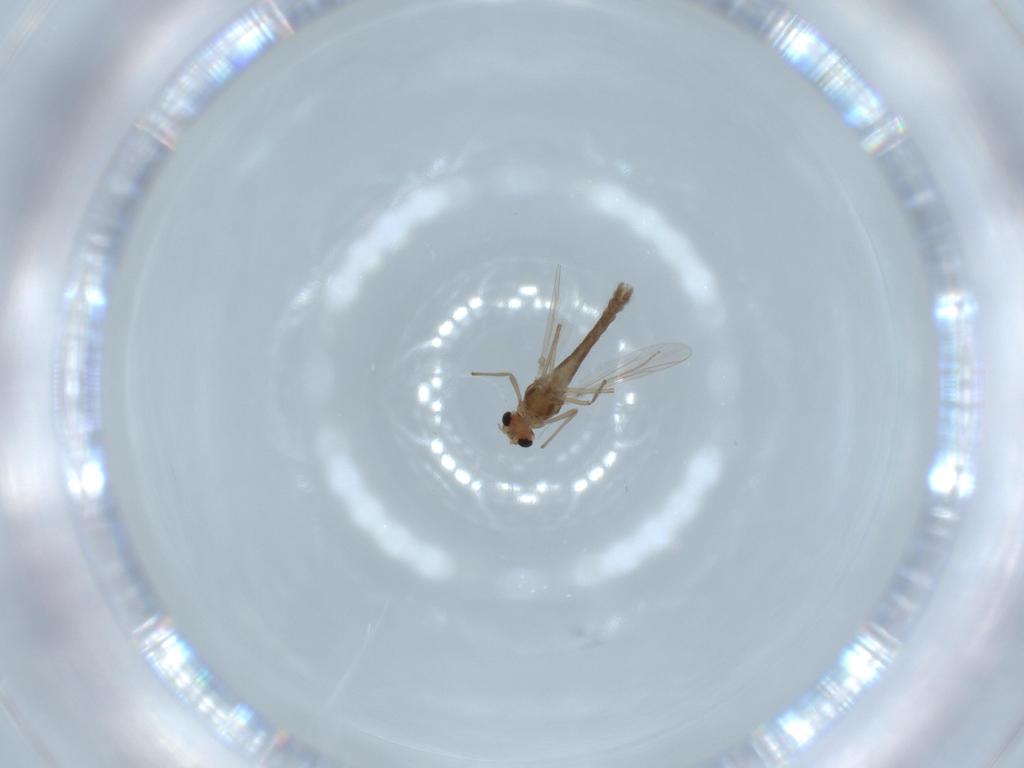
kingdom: Animalia
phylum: Arthropoda
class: Insecta
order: Diptera
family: Chironomidae
